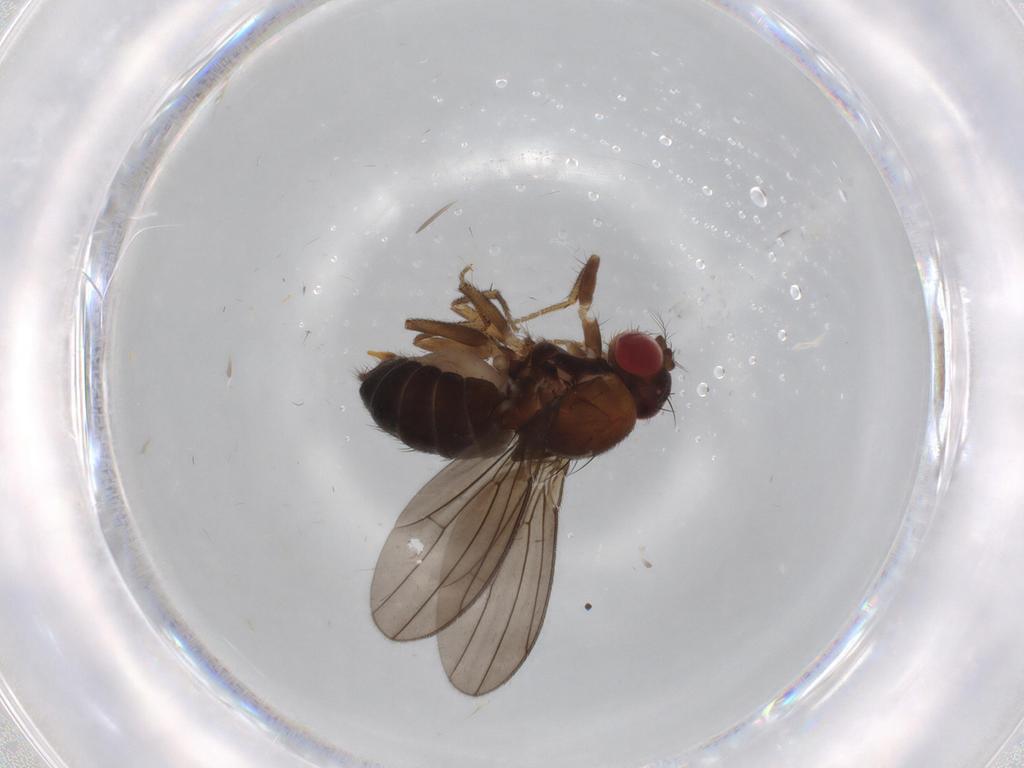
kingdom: Animalia
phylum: Arthropoda
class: Insecta
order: Diptera
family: Drosophilidae
